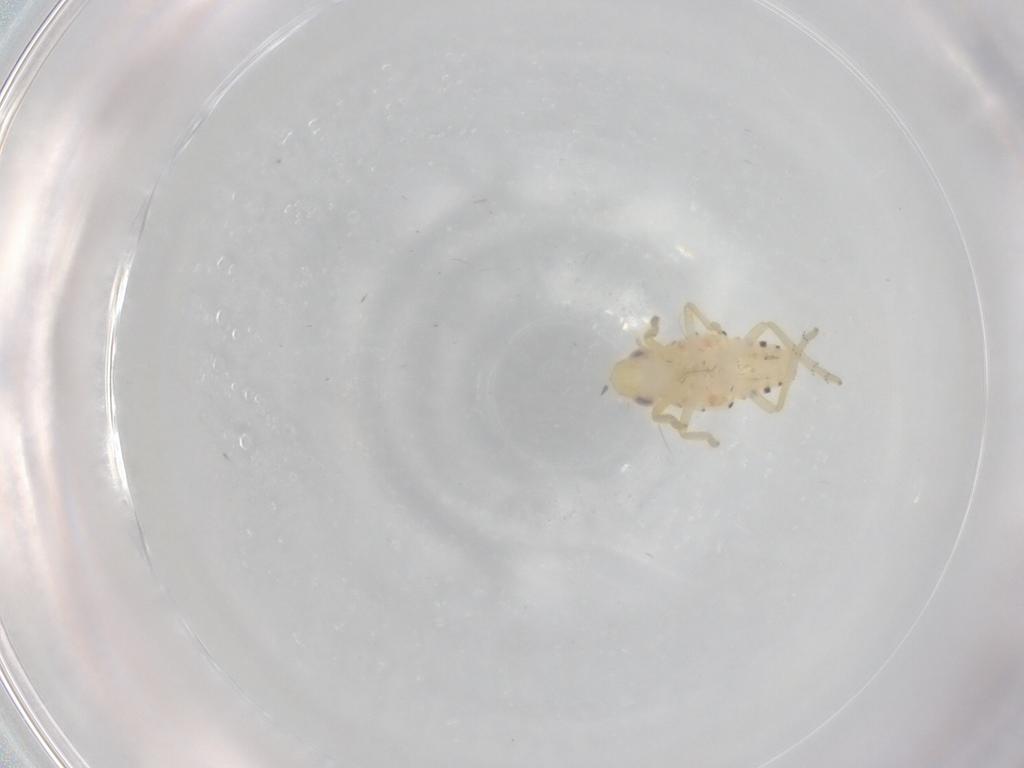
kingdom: Animalia
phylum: Arthropoda
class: Insecta
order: Hemiptera
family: Tropiduchidae
